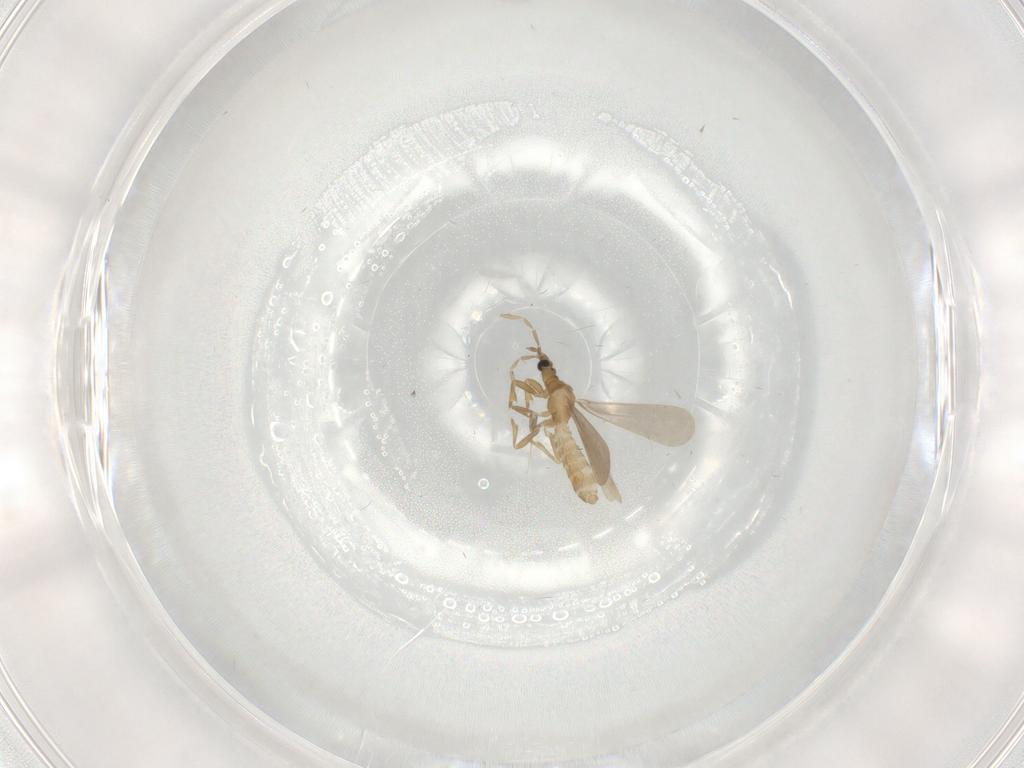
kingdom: Animalia
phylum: Arthropoda
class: Insecta
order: Hemiptera
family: Enicocephalidae
